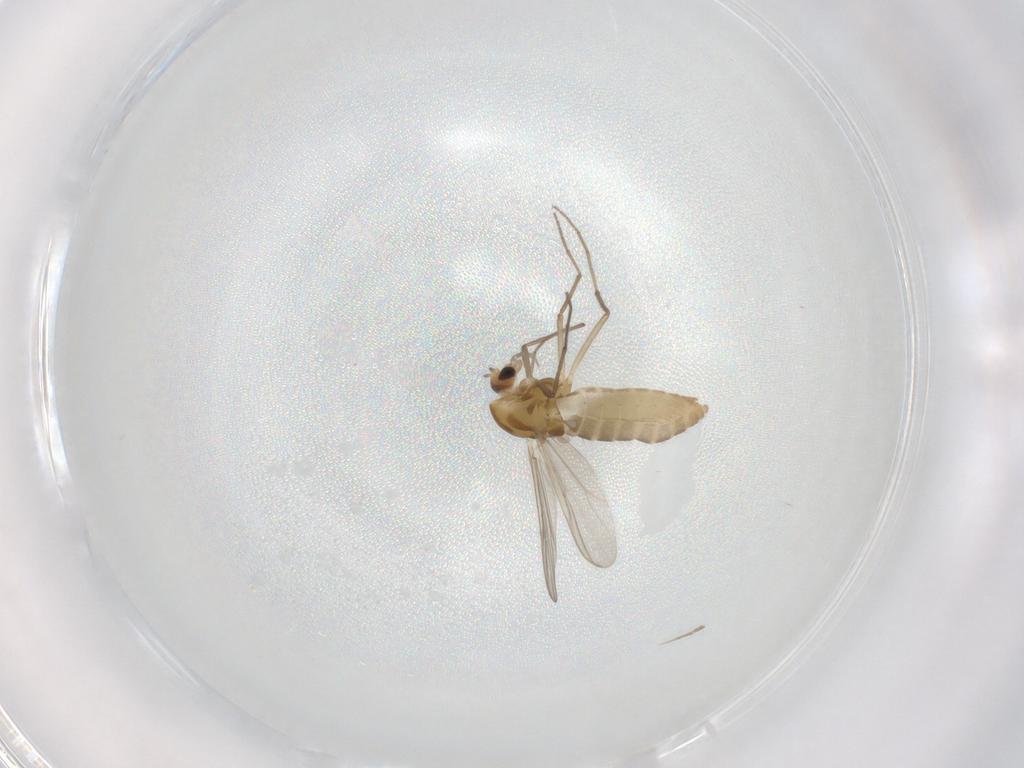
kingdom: Animalia
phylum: Arthropoda
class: Insecta
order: Diptera
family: Chironomidae
